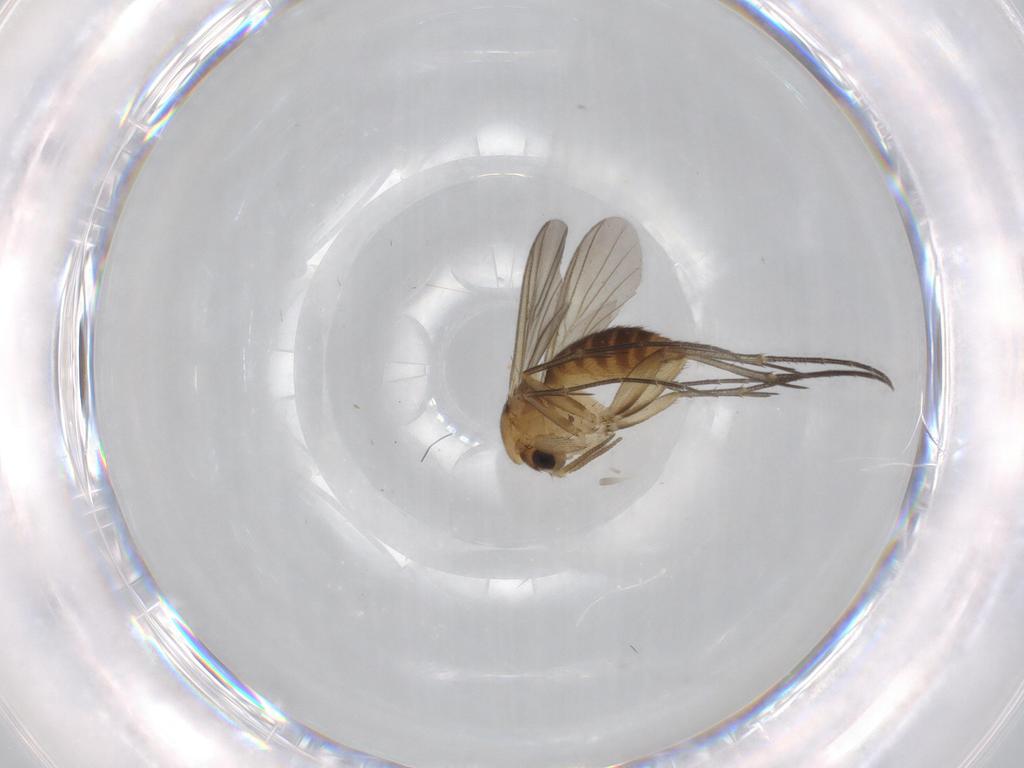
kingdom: Animalia
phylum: Arthropoda
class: Insecta
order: Diptera
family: Mycetophilidae
